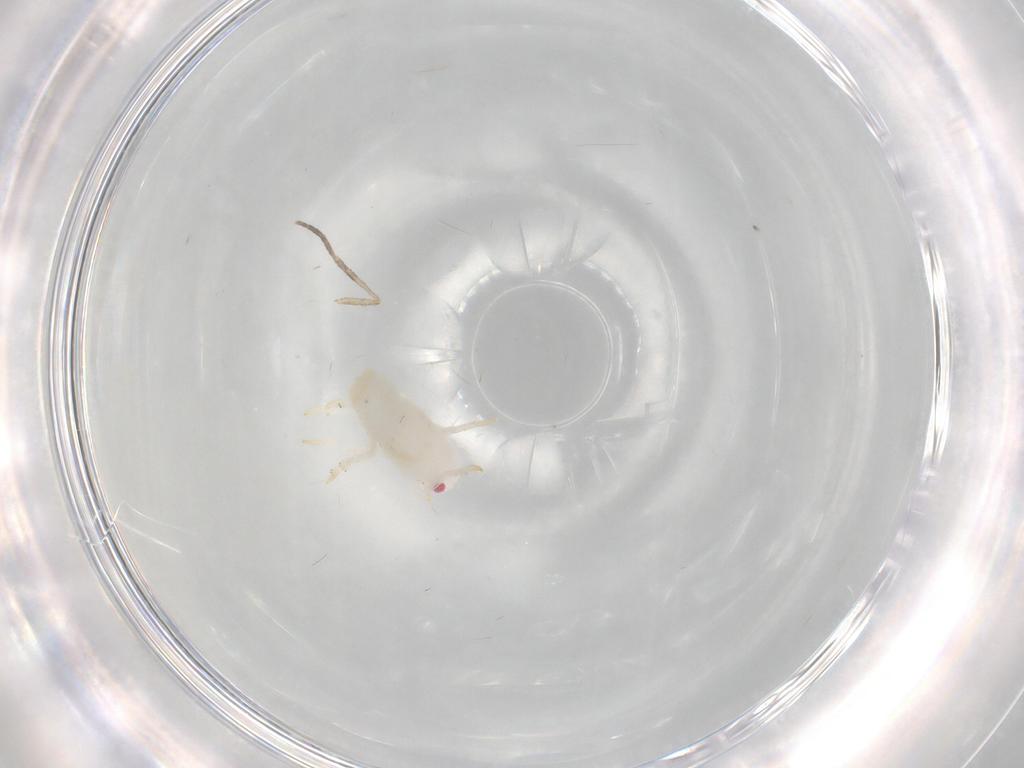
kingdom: Animalia
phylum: Arthropoda
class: Insecta
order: Hemiptera
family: Flatidae
